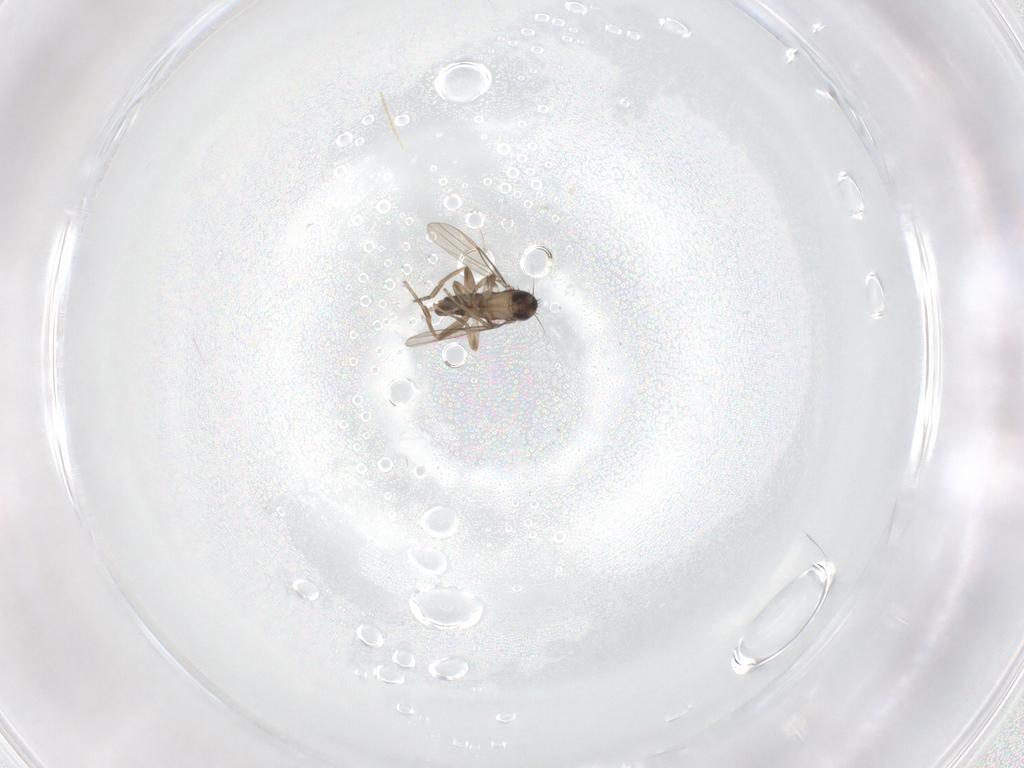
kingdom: Animalia
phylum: Arthropoda
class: Insecta
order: Diptera
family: Phoridae
